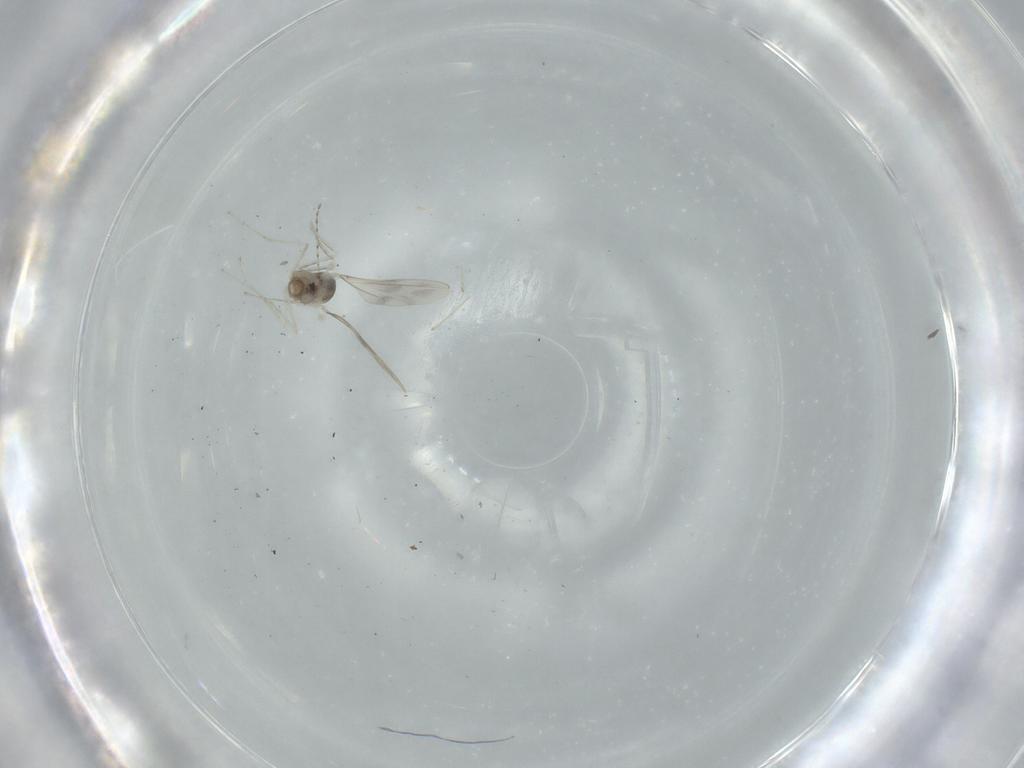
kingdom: Animalia
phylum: Arthropoda
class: Insecta
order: Diptera
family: Cecidomyiidae
